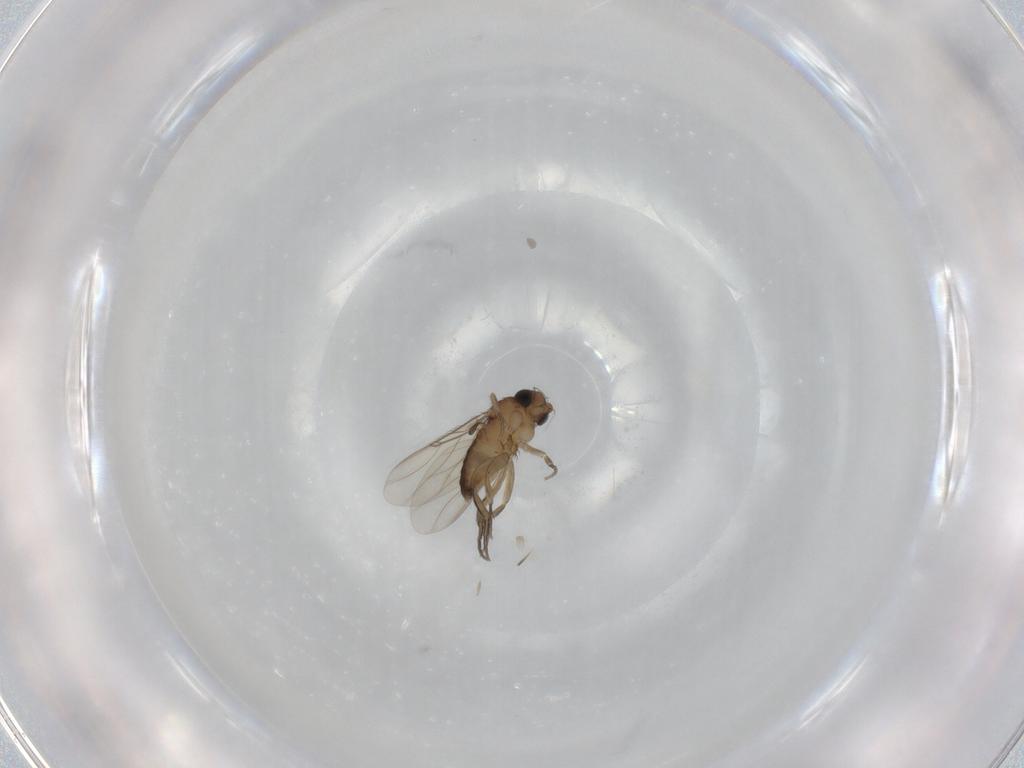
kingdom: Animalia
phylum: Arthropoda
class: Insecta
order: Diptera
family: Phoridae
